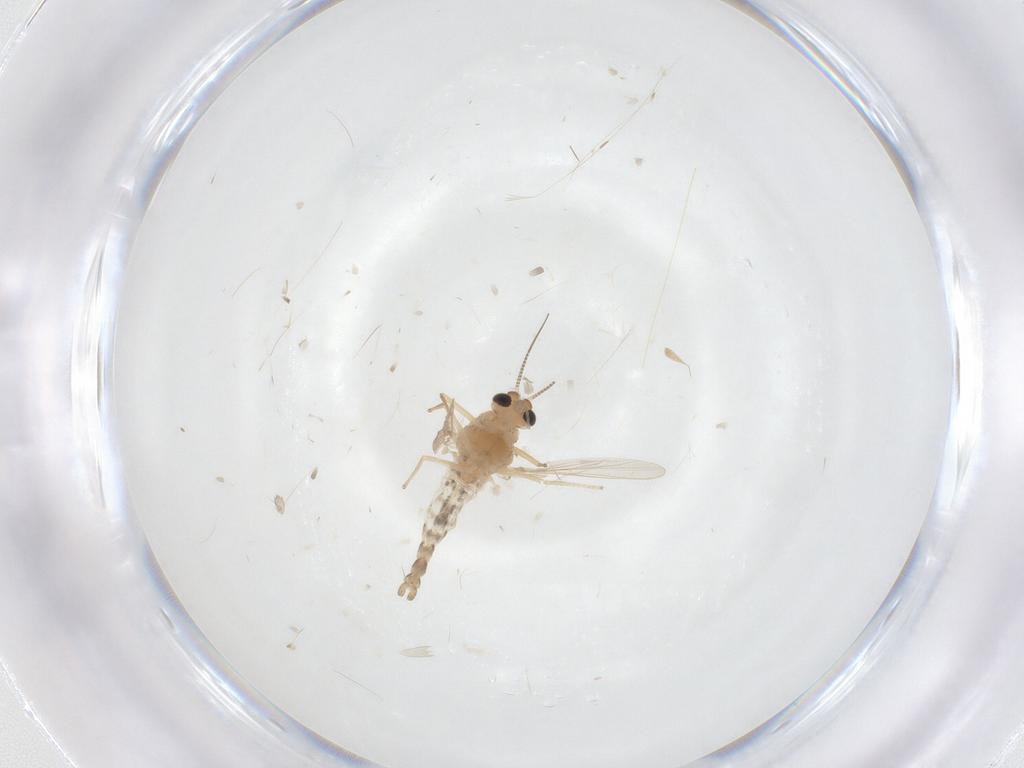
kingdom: Animalia
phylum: Arthropoda
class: Insecta
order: Diptera
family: Chironomidae
